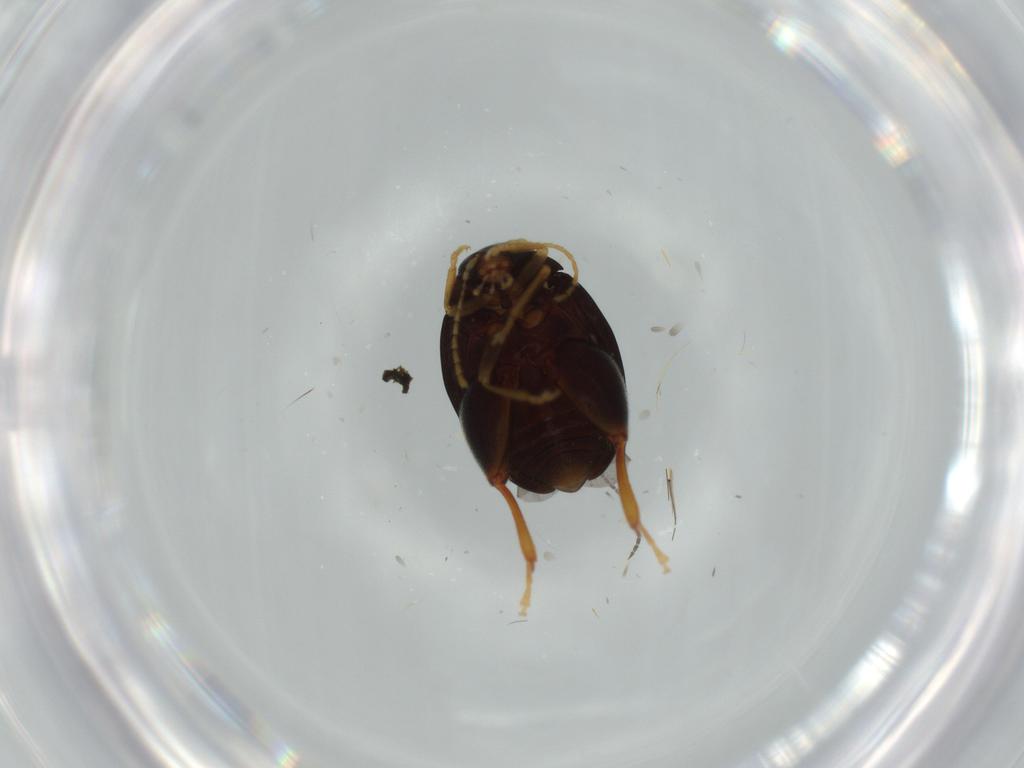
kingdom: Animalia
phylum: Arthropoda
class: Insecta
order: Coleoptera
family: Chrysomelidae
